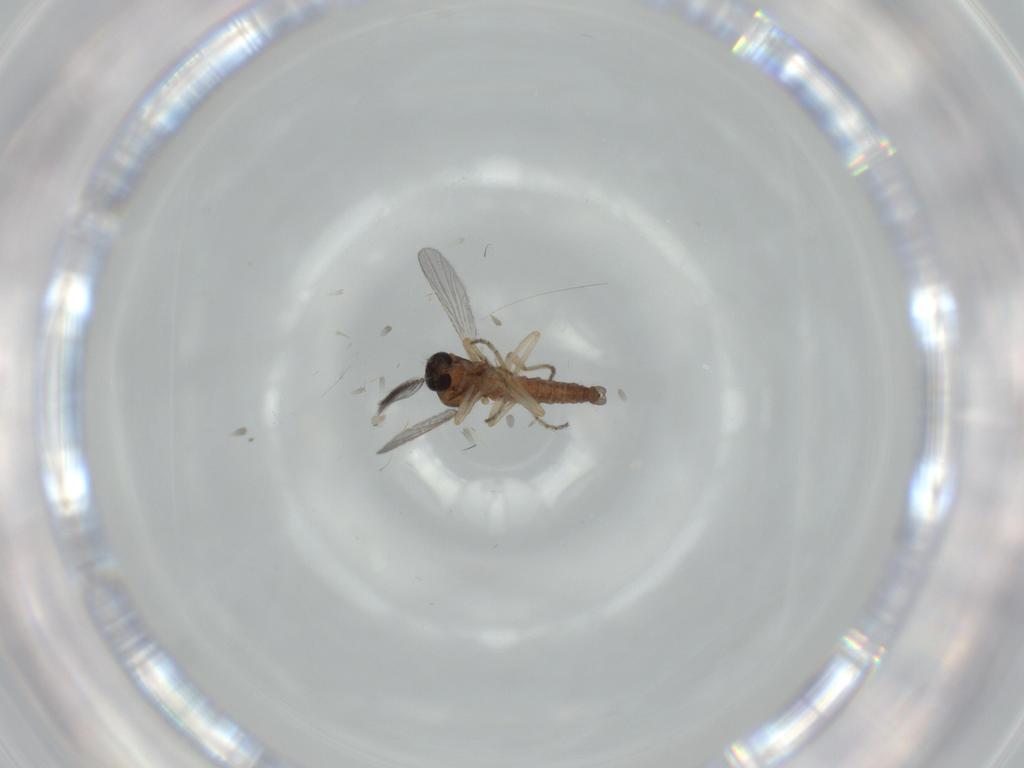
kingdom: Animalia
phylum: Arthropoda
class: Insecta
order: Diptera
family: Ceratopogonidae
